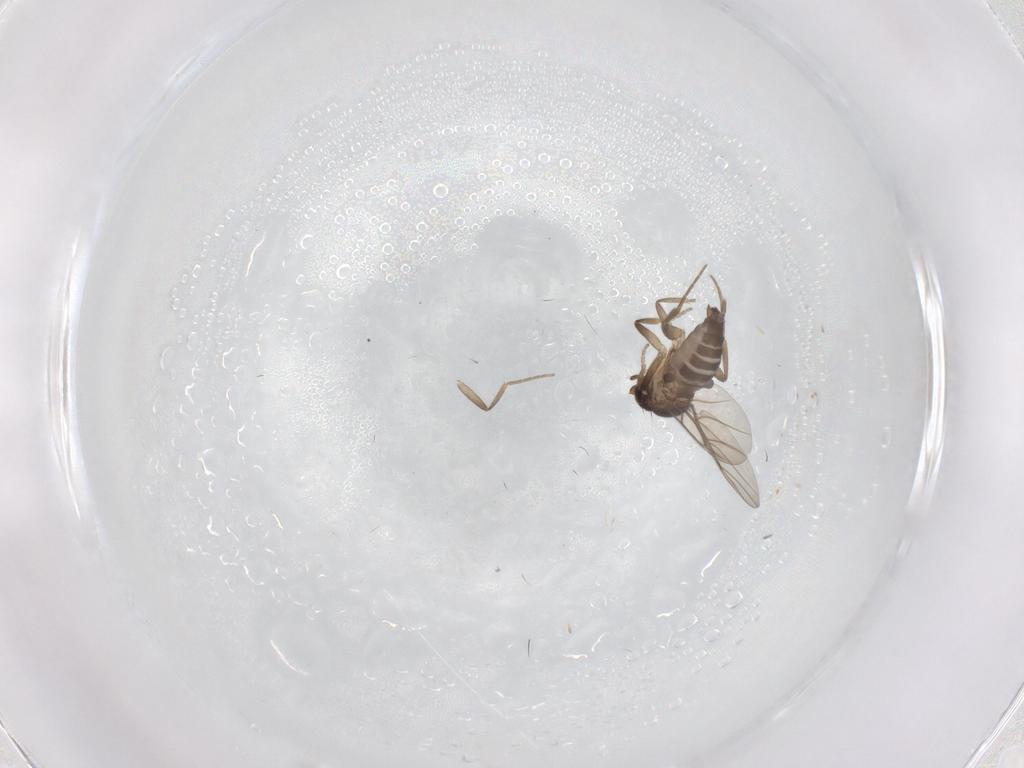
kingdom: Animalia
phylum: Arthropoda
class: Insecta
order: Diptera
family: Phoridae
